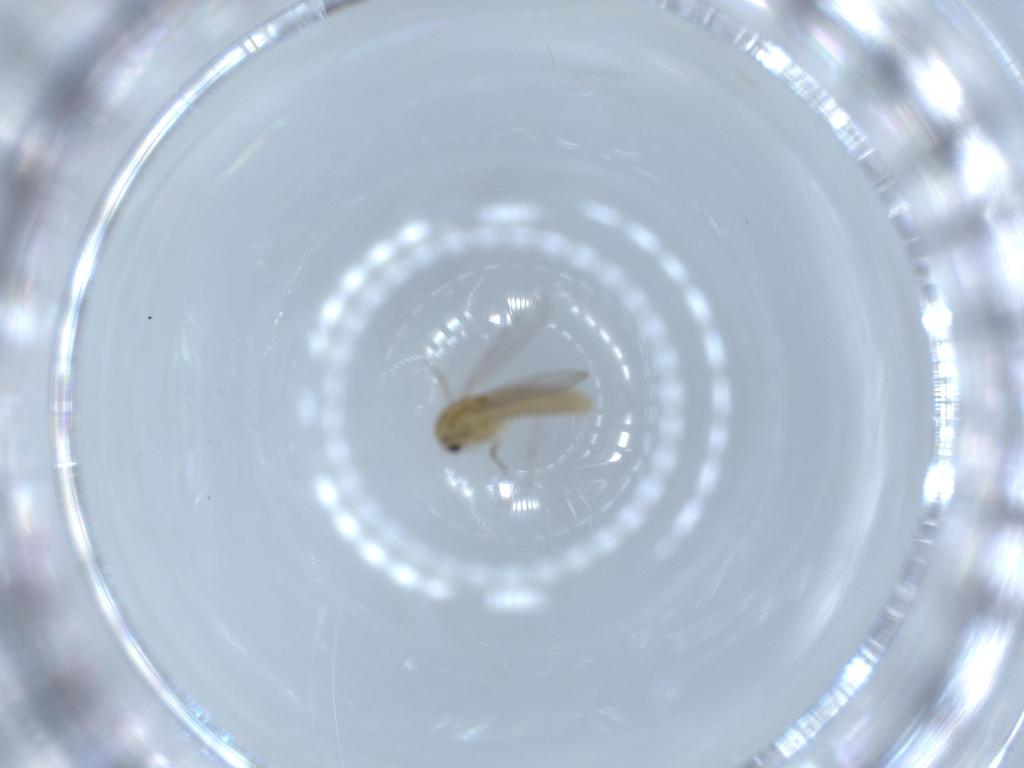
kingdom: Animalia
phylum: Arthropoda
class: Insecta
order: Diptera
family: Chironomidae
